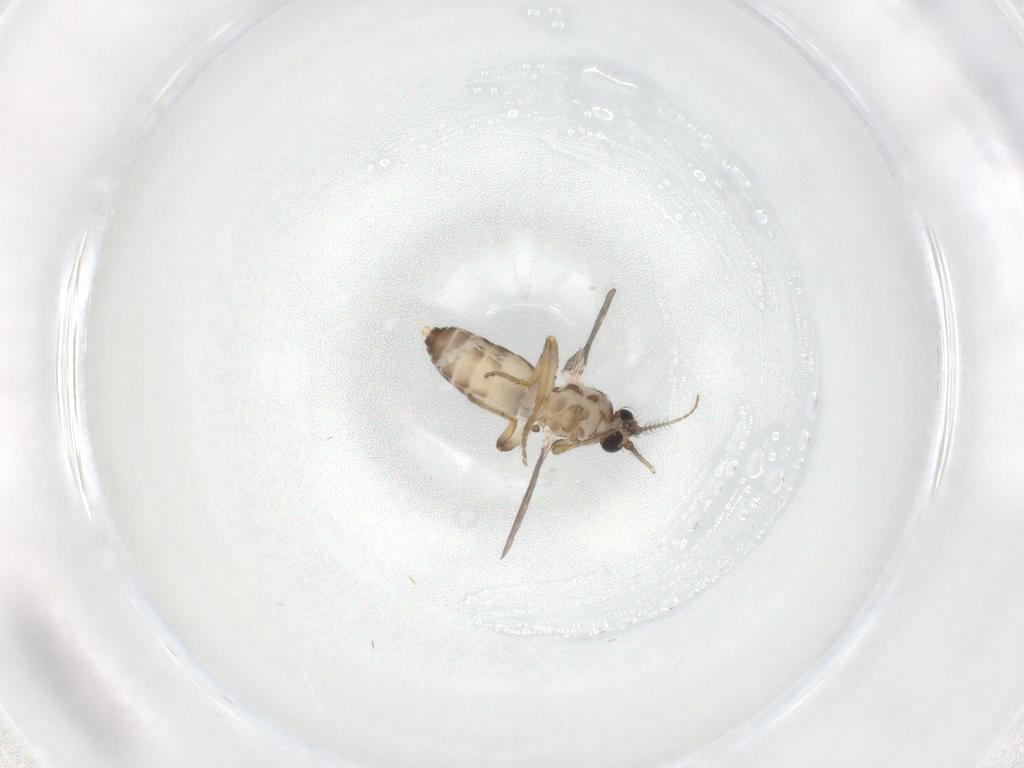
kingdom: Animalia
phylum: Arthropoda
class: Insecta
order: Diptera
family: Ceratopogonidae
